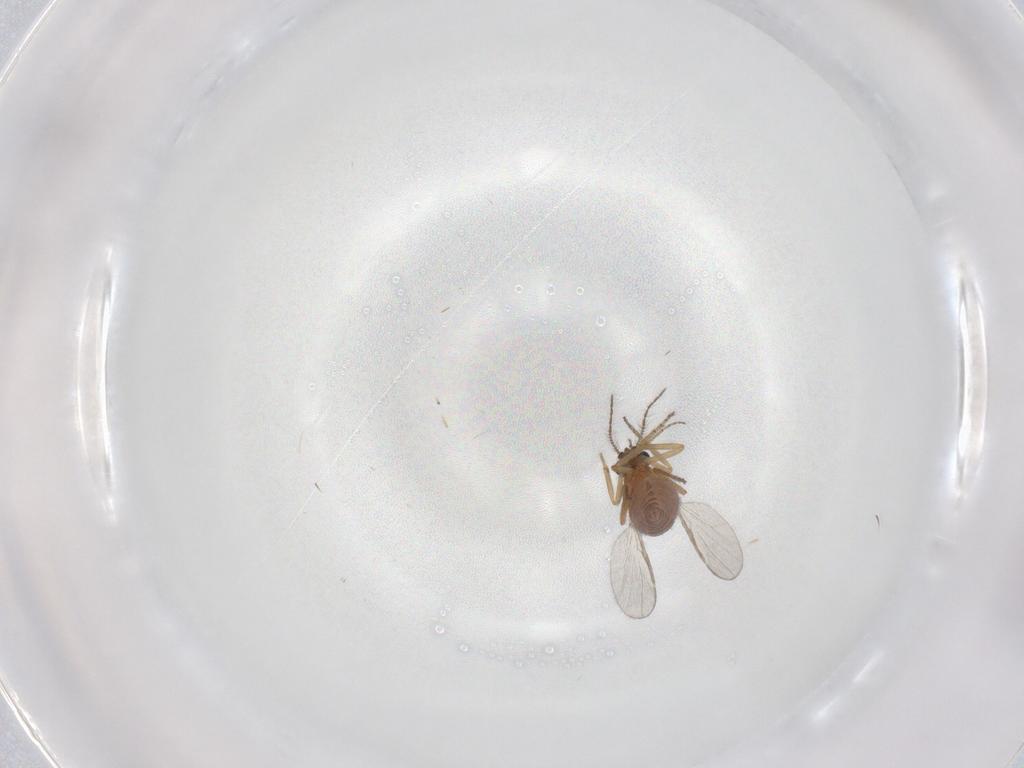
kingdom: Animalia
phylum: Arthropoda
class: Insecta
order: Diptera
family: Ceratopogonidae
